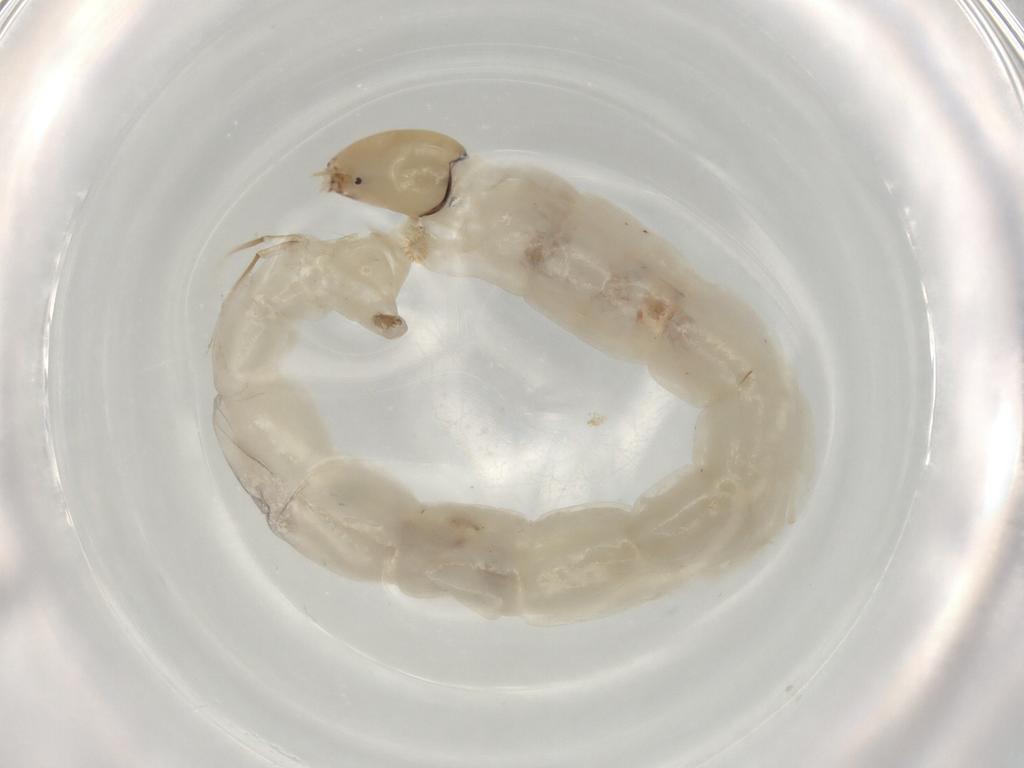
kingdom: Animalia
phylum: Arthropoda
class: Insecta
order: Diptera
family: Chironomidae
